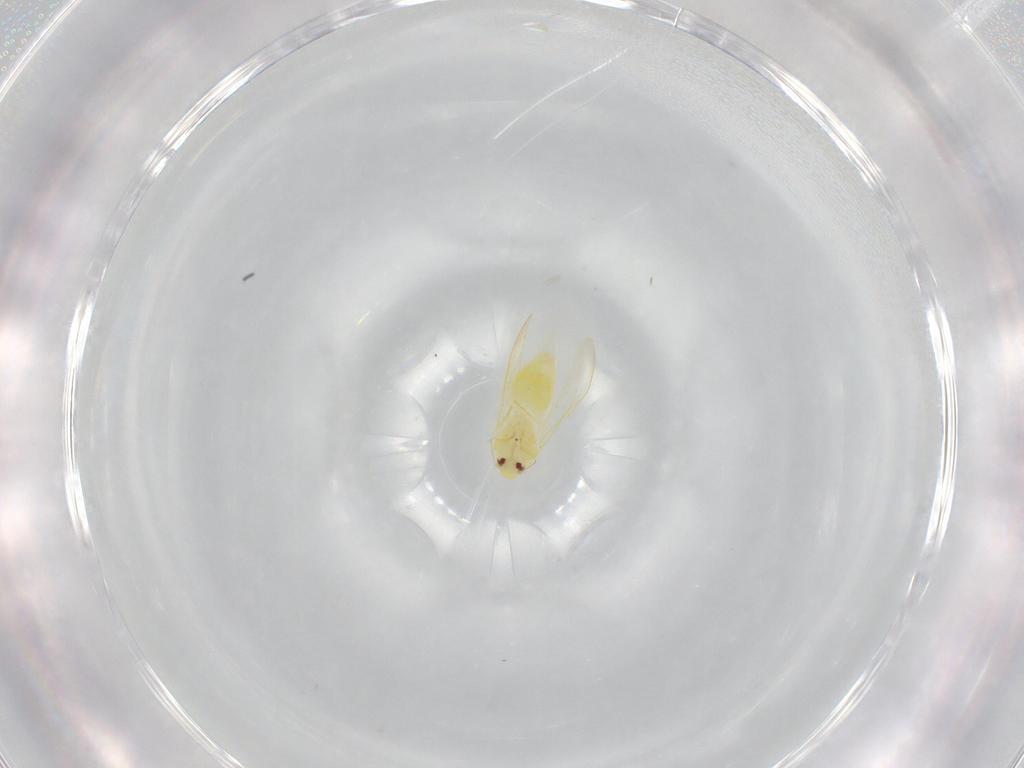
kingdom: Animalia
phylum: Arthropoda
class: Insecta
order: Hemiptera
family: Aleyrodidae
